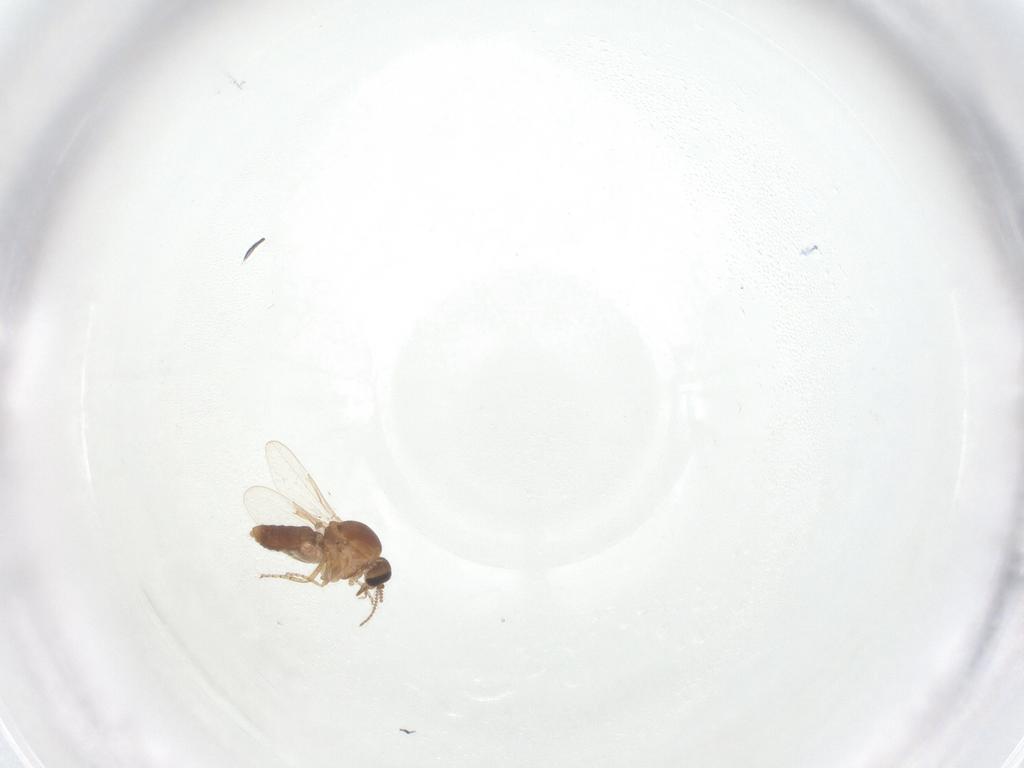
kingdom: Animalia
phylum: Arthropoda
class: Insecta
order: Diptera
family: Ceratopogonidae
